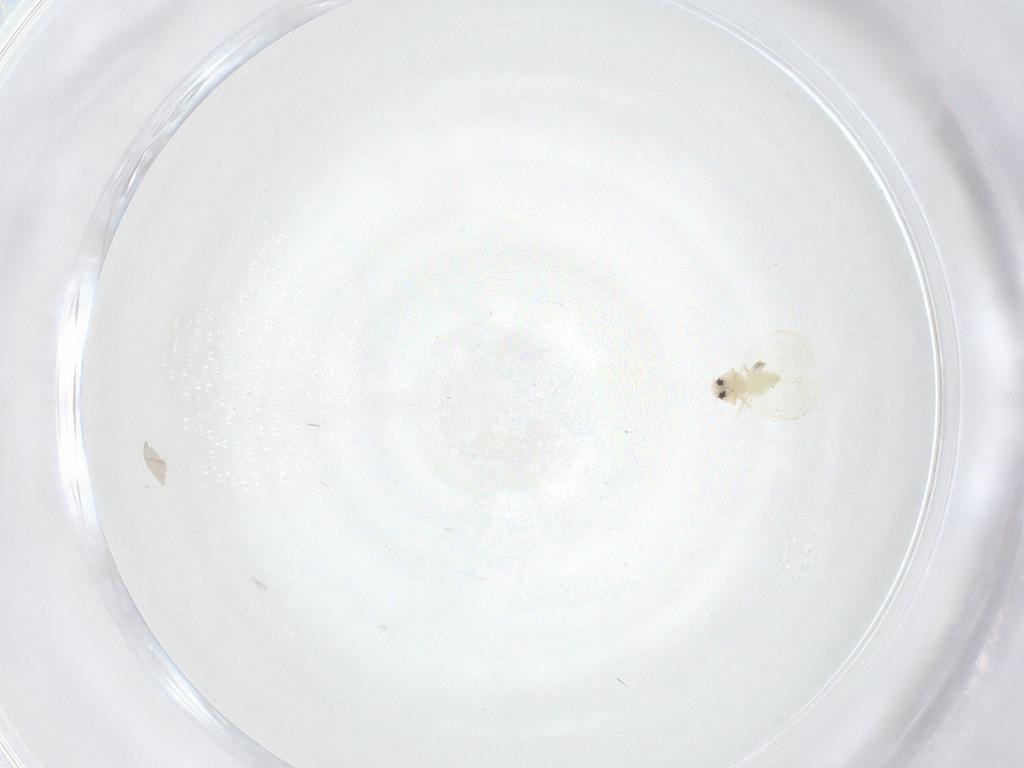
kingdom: Animalia
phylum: Arthropoda
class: Insecta
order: Hemiptera
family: Aleyrodidae
